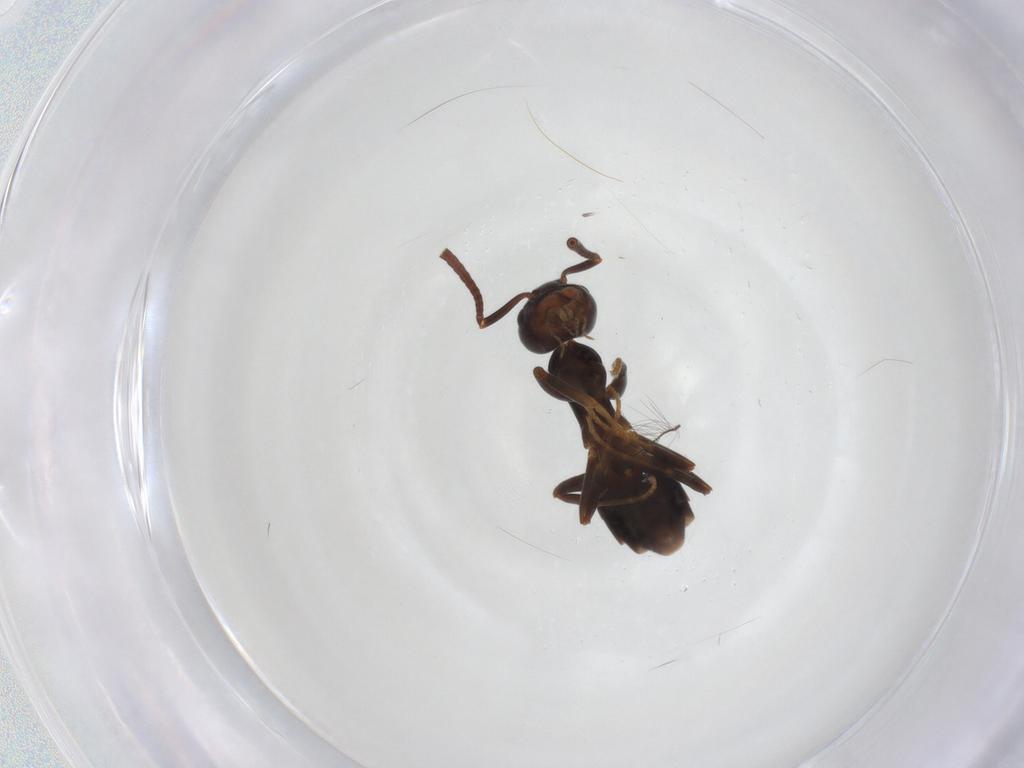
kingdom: Animalia
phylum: Arthropoda
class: Insecta
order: Hymenoptera
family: Formicidae
